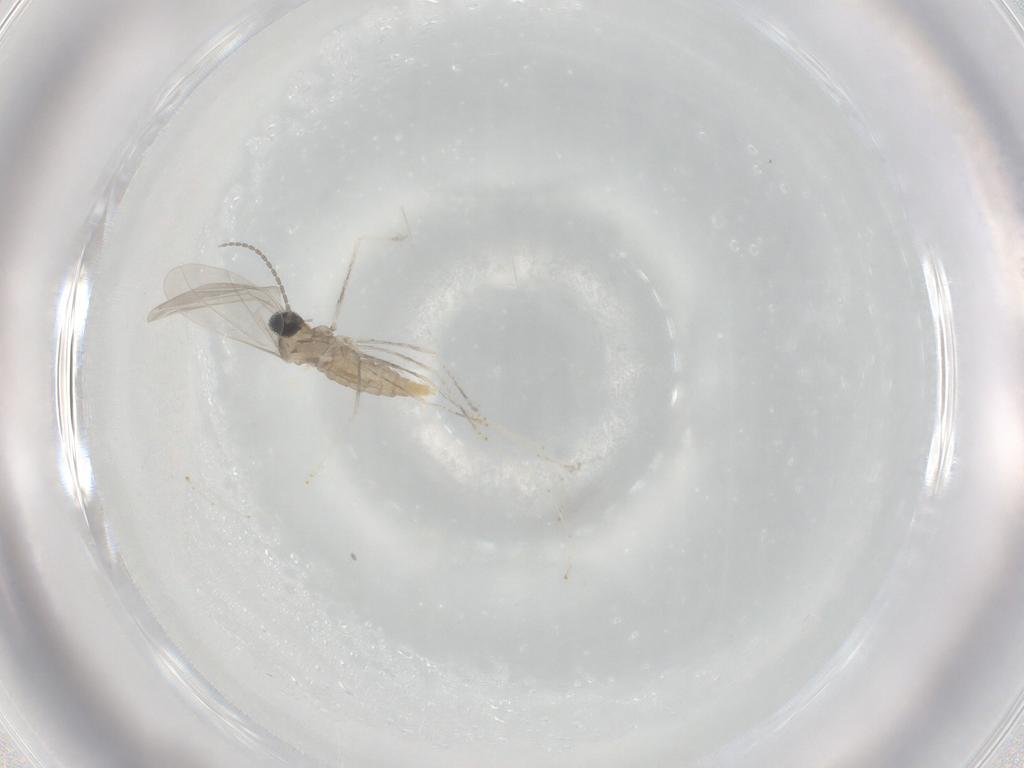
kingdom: Animalia
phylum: Arthropoda
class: Insecta
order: Diptera
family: Cecidomyiidae
